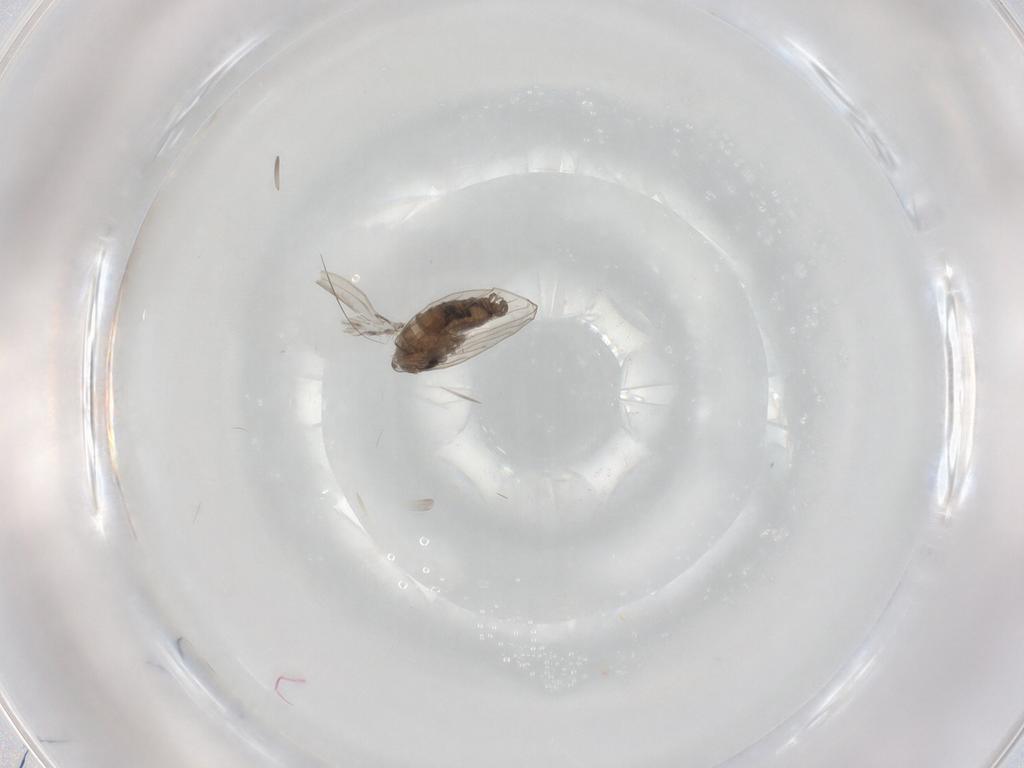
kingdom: Animalia
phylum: Arthropoda
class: Insecta
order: Diptera
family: Psychodidae
